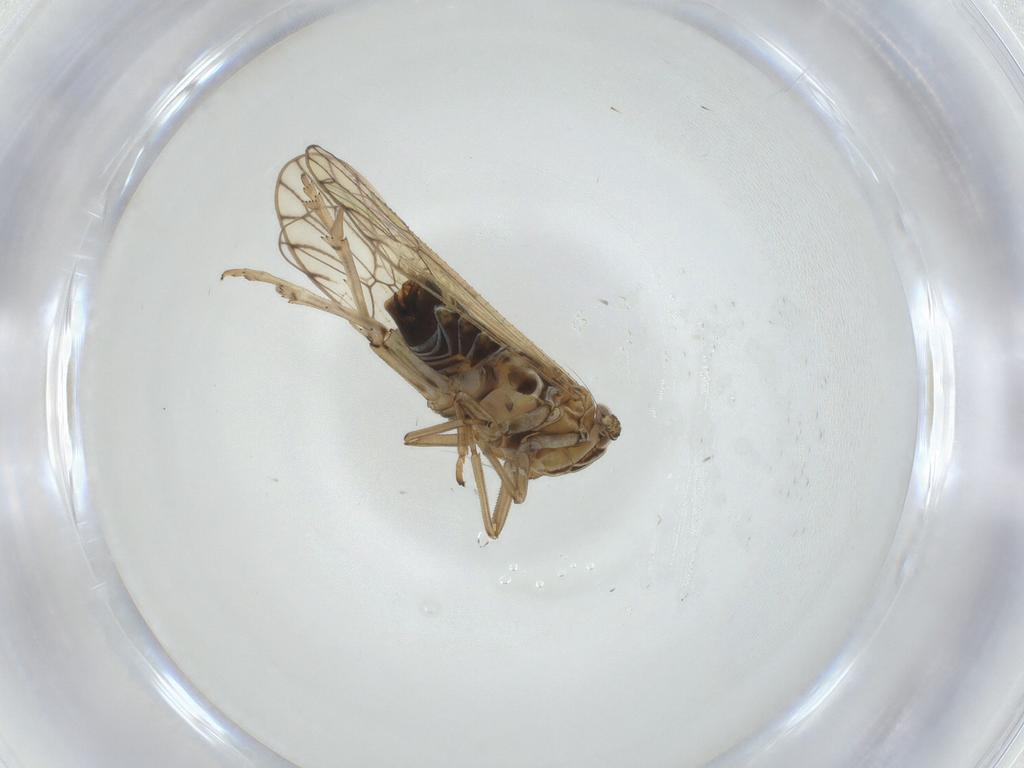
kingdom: Animalia
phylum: Arthropoda
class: Insecta
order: Hemiptera
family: Delphacidae
